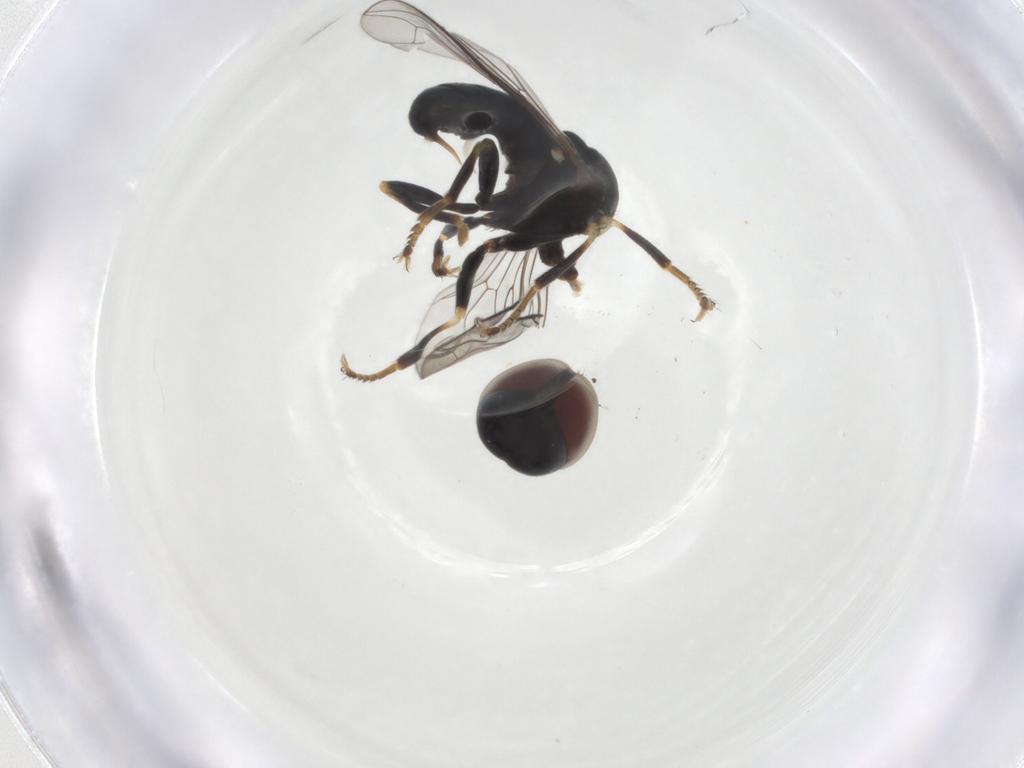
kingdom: Animalia
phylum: Arthropoda
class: Insecta
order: Diptera
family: Pipunculidae
